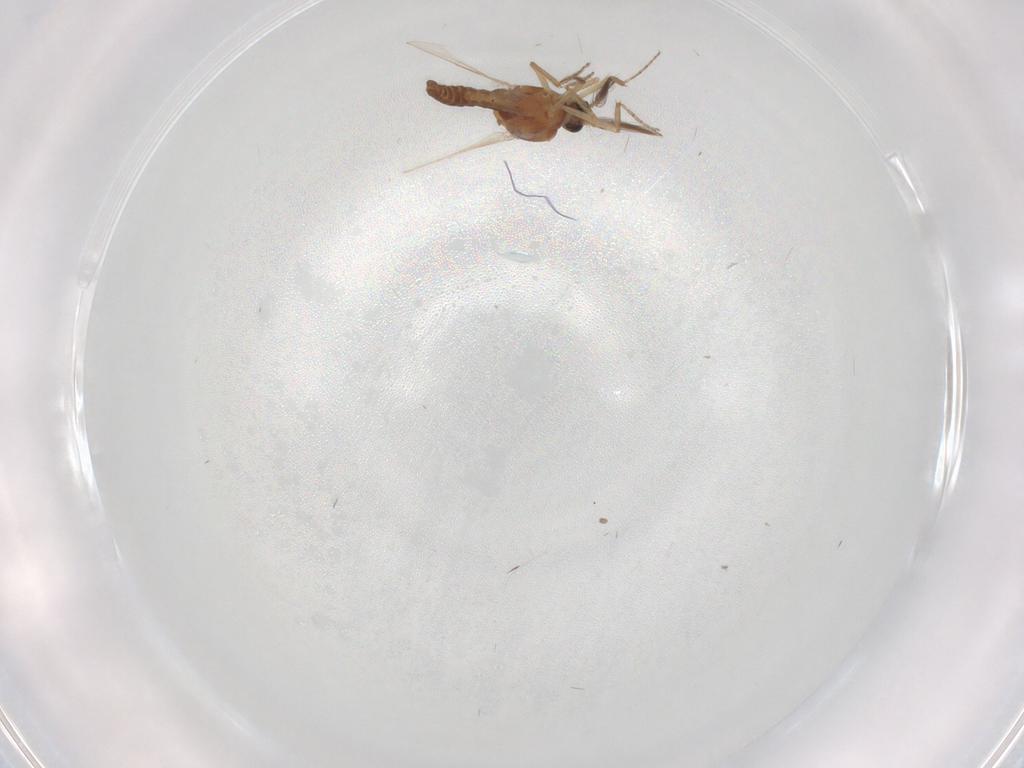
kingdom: Animalia
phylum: Arthropoda
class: Insecta
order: Diptera
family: Ceratopogonidae
